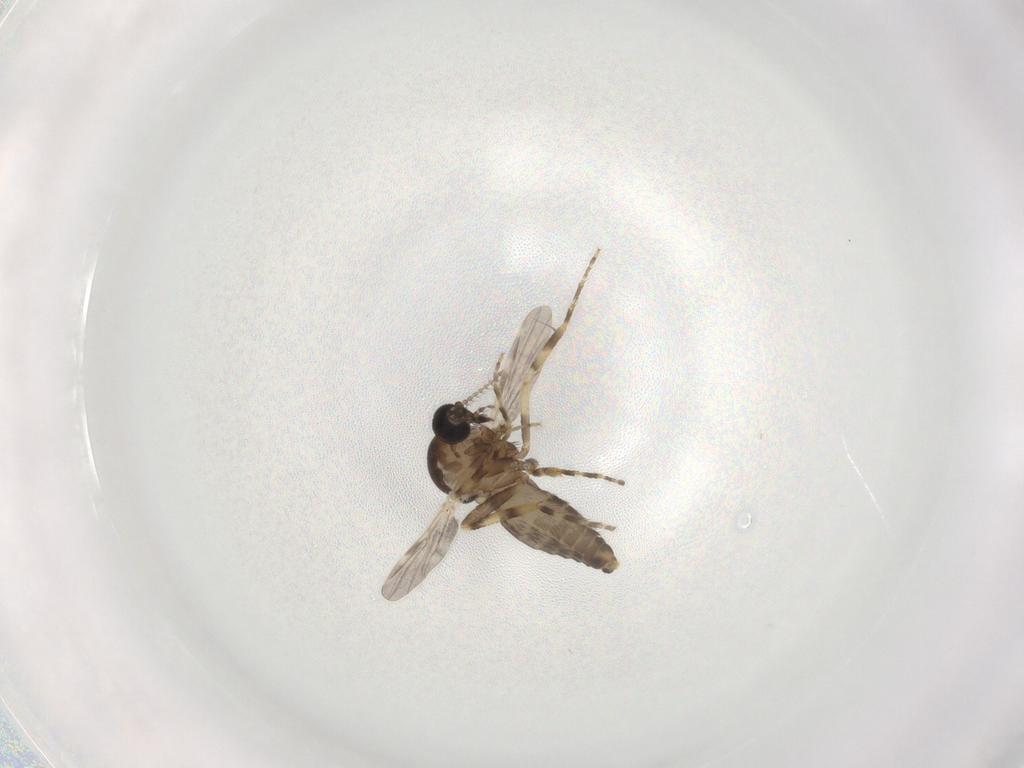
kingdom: Animalia
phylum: Arthropoda
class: Insecta
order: Diptera
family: Ceratopogonidae
